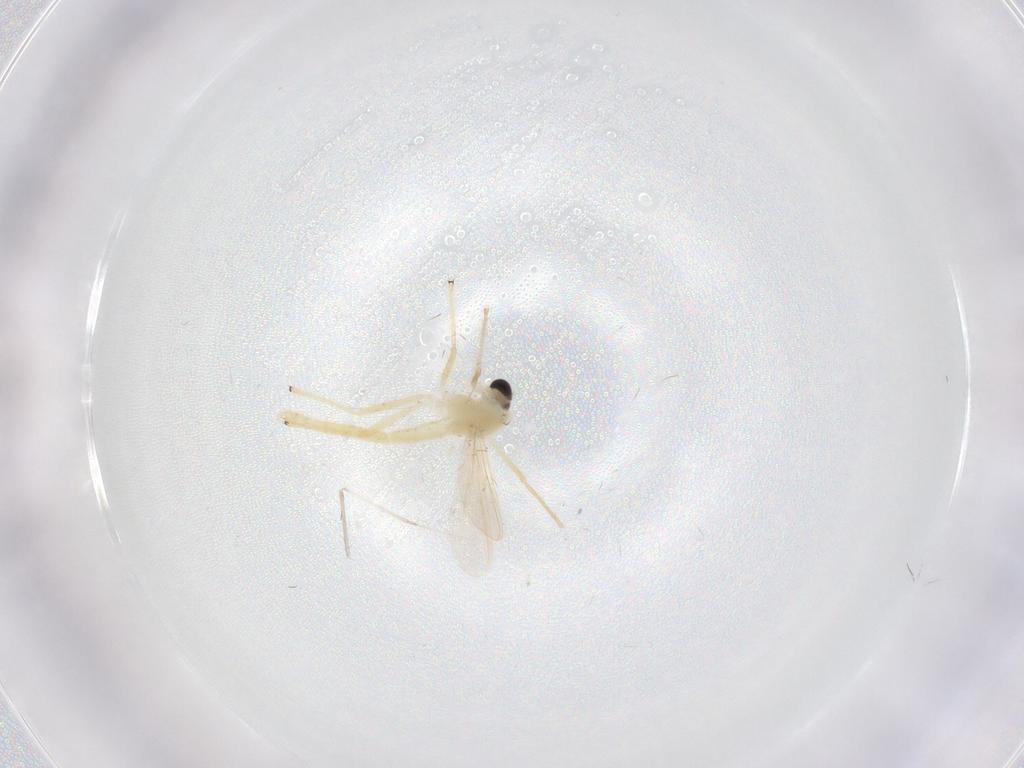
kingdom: Animalia
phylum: Arthropoda
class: Insecta
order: Diptera
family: Chironomidae
